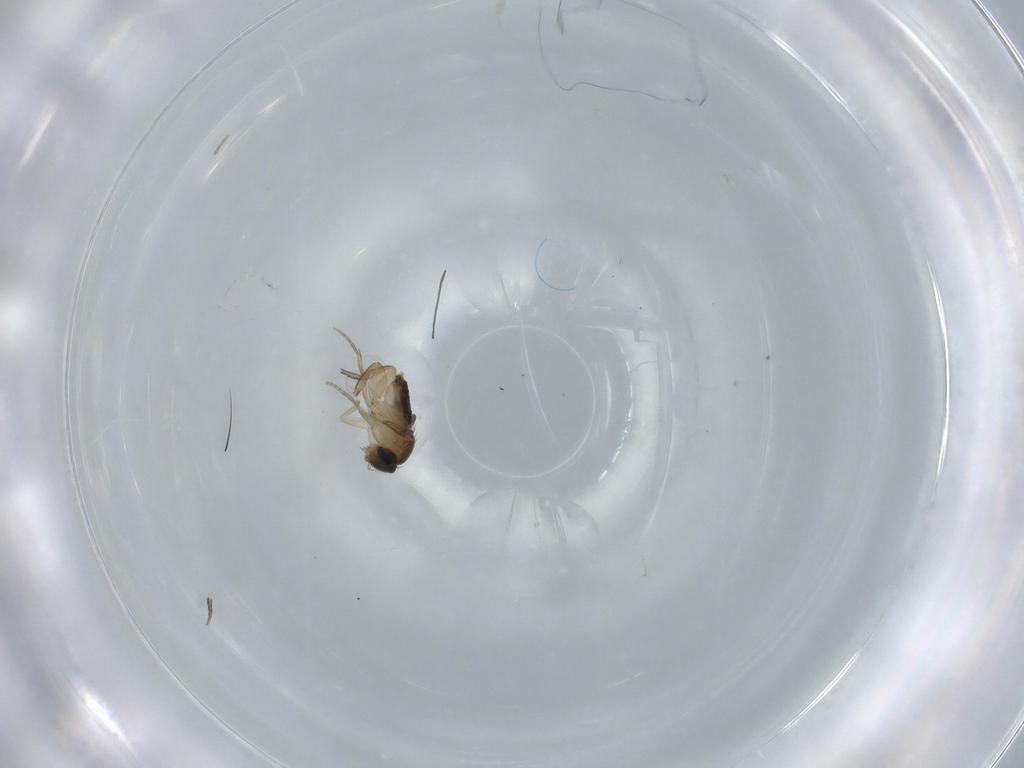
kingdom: Animalia
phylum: Arthropoda
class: Insecta
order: Diptera
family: Phoridae
